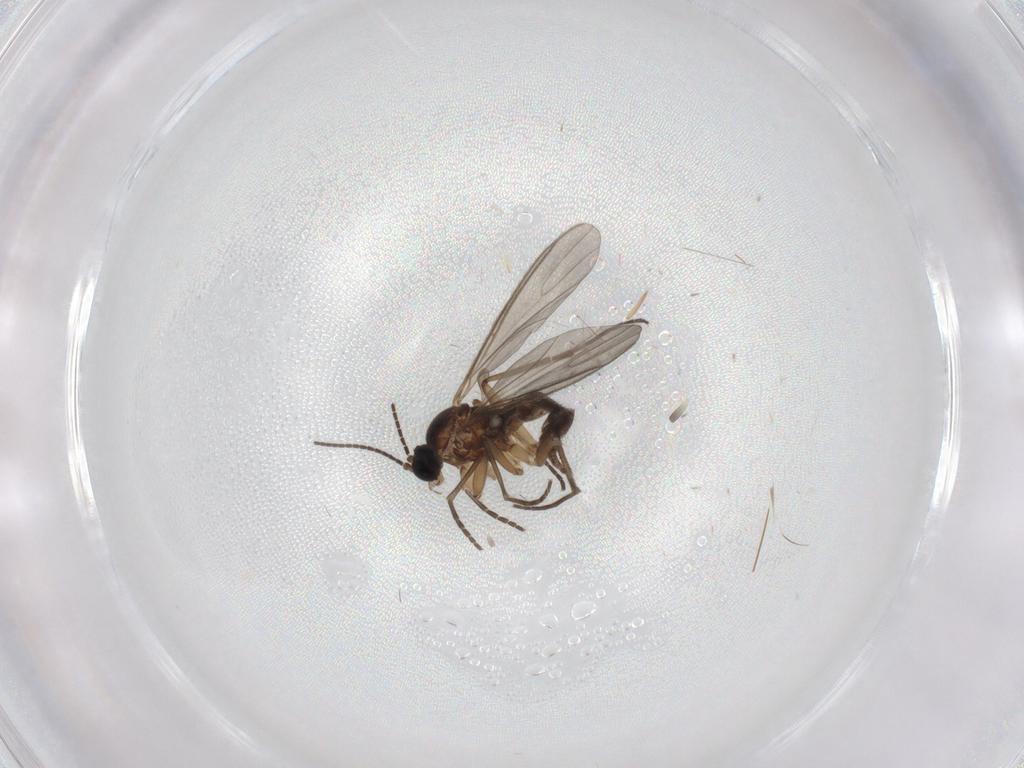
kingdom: Animalia
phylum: Arthropoda
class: Insecta
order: Diptera
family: Sciaridae
